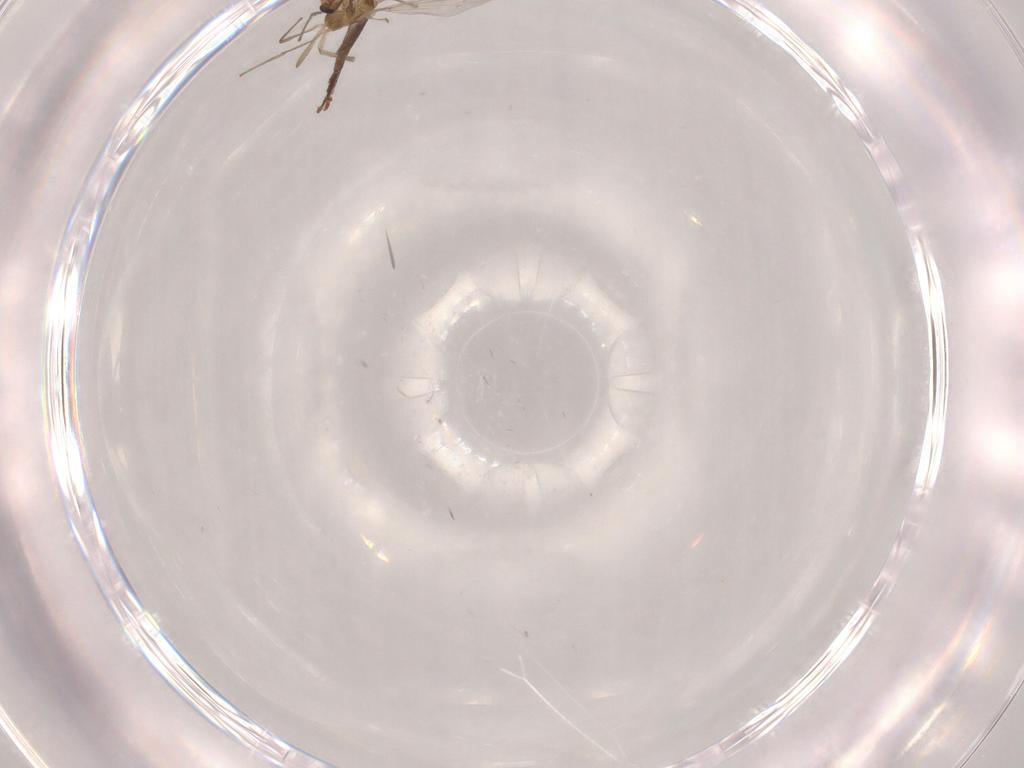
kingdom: Animalia
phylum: Arthropoda
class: Insecta
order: Diptera
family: Chironomidae
